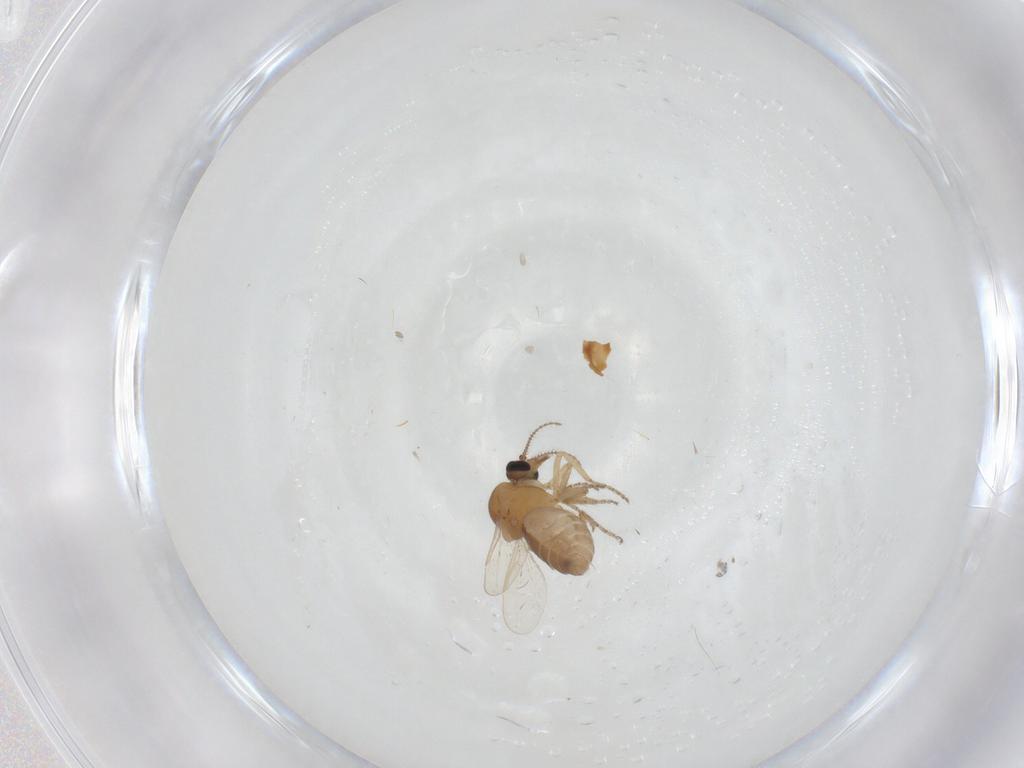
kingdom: Animalia
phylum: Arthropoda
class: Insecta
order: Diptera
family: Ceratopogonidae
